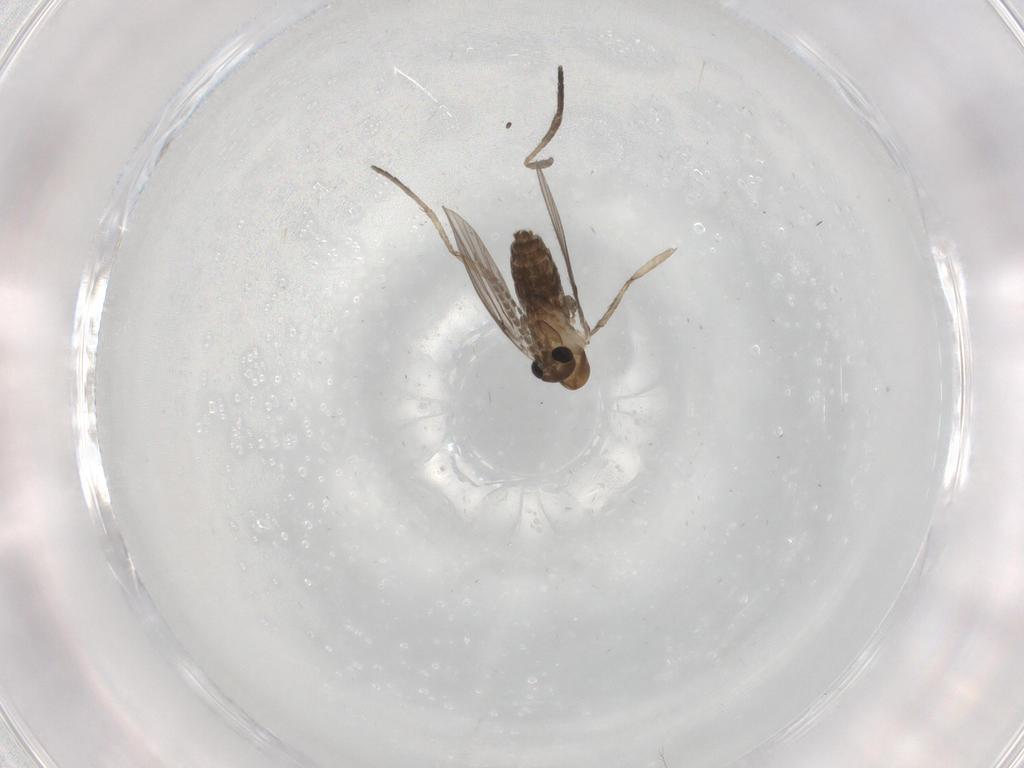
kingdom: Animalia
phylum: Arthropoda
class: Insecta
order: Diptera
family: Psychodidae
